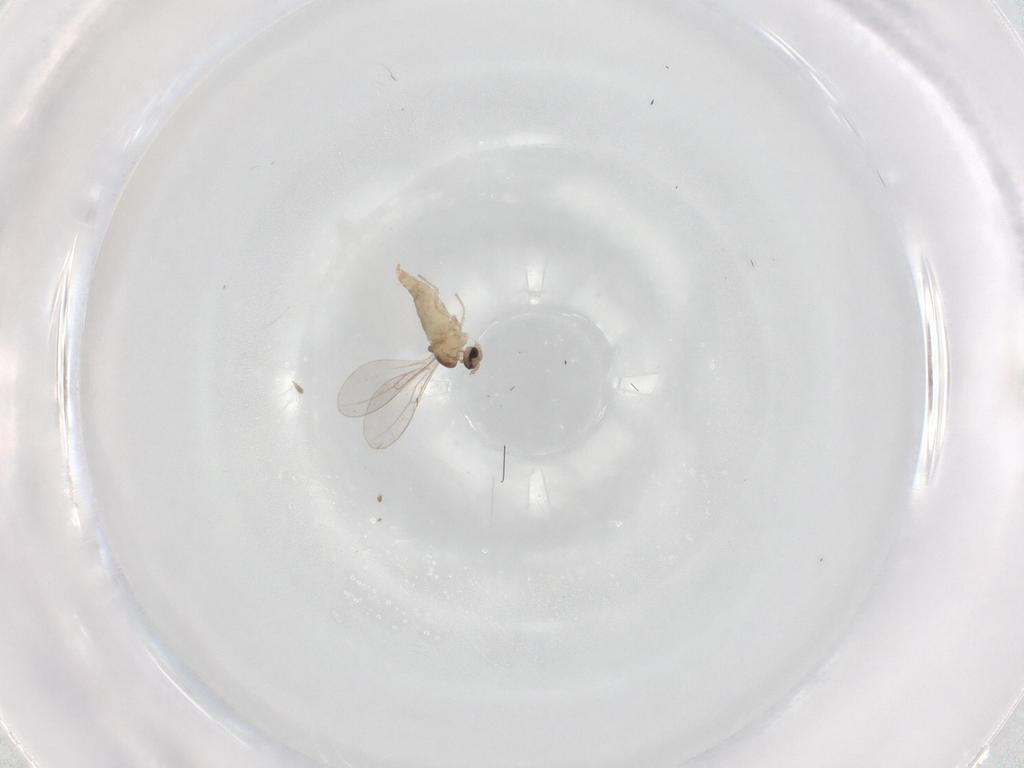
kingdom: Animalia
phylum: Arthropoda
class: Insecta
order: Diptera
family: Cecidomyiidae
